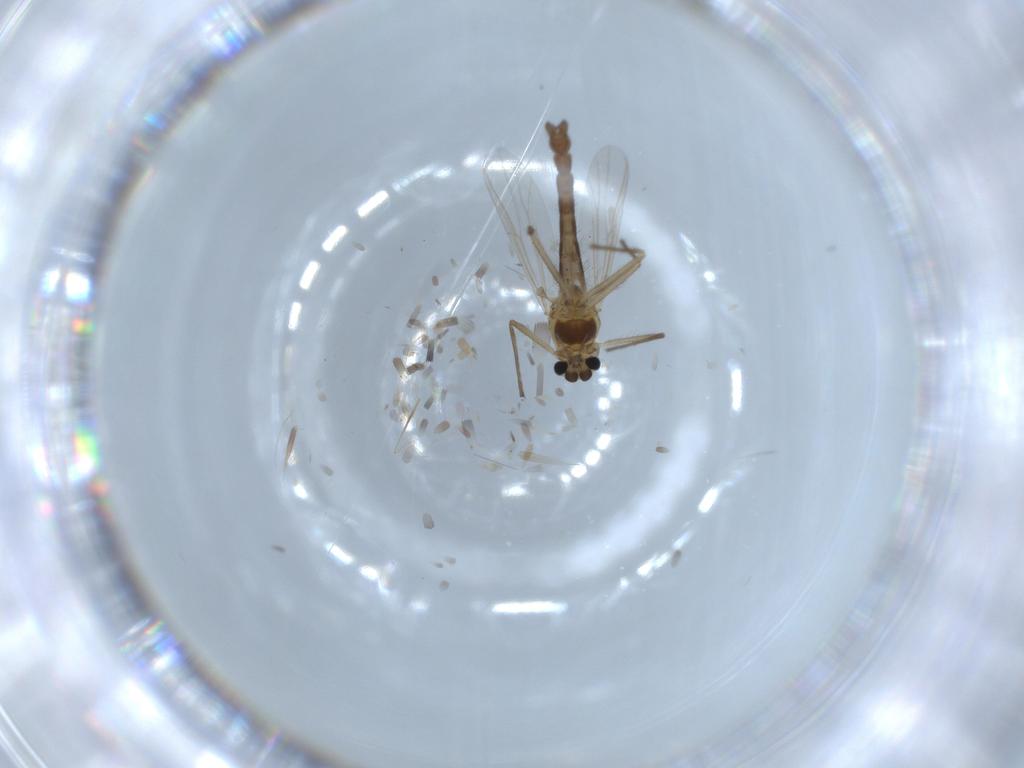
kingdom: Animalia
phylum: Arthropoda
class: Insecta
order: Diptera
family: Chironomidae
